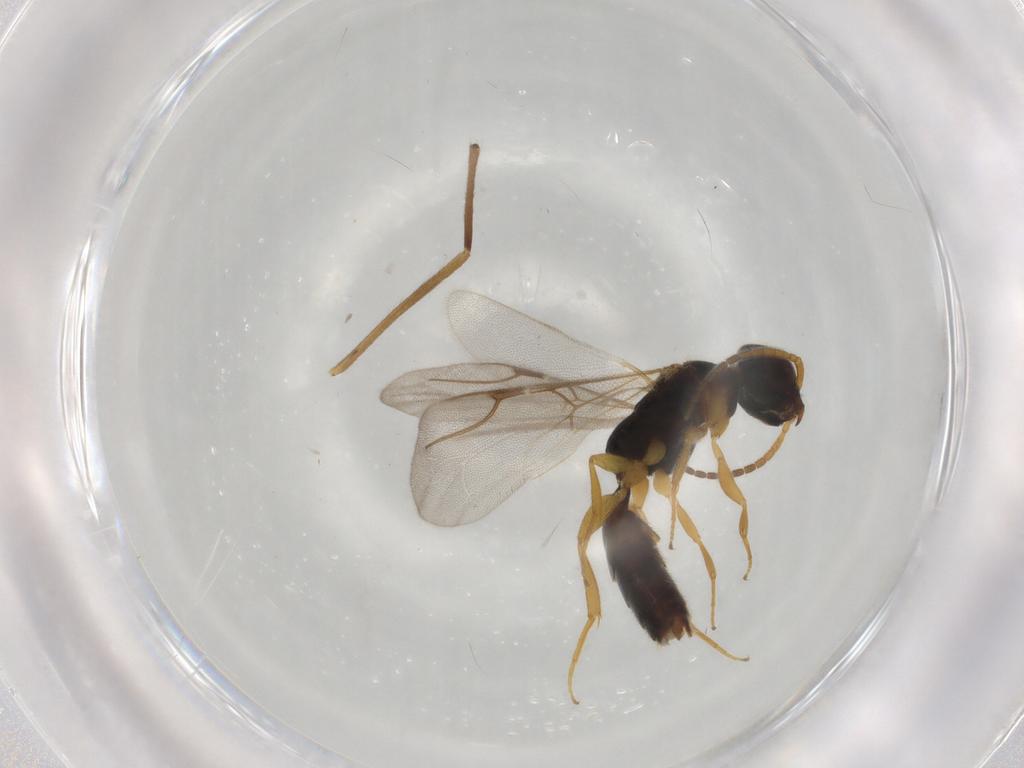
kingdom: Animalia
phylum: Arthropoda
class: Insecta
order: Hymenoptera
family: Bethylidae
